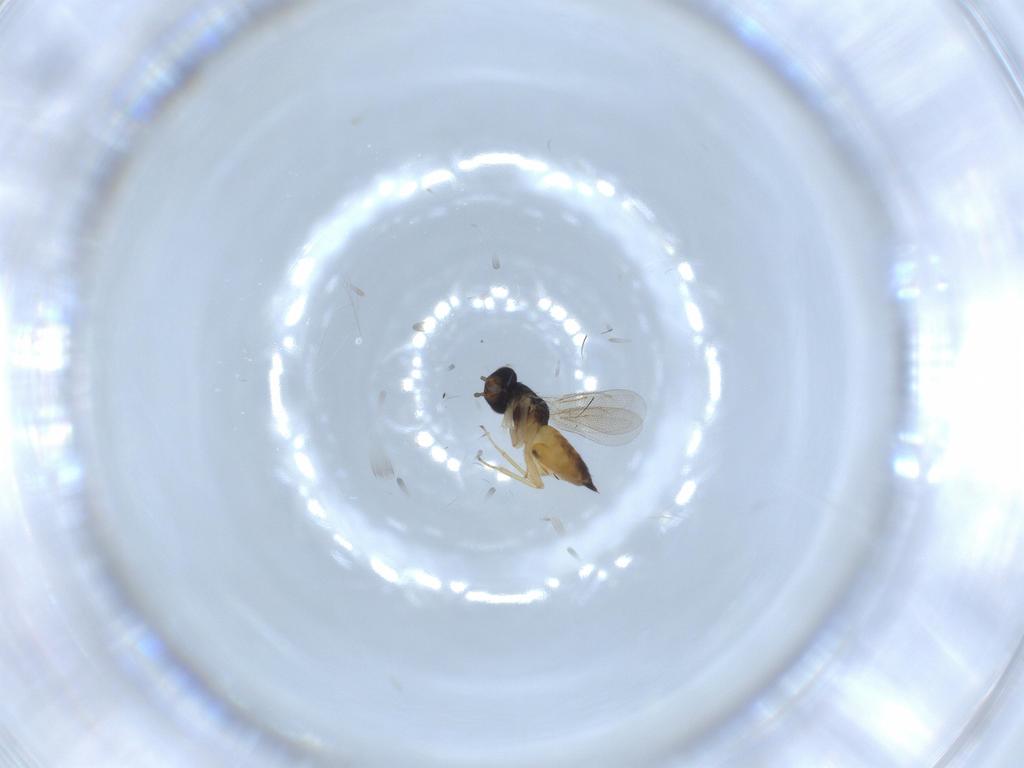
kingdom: Animalia
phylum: Arthropoda
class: Insecta
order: Hymenoptera
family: Eulophidae
